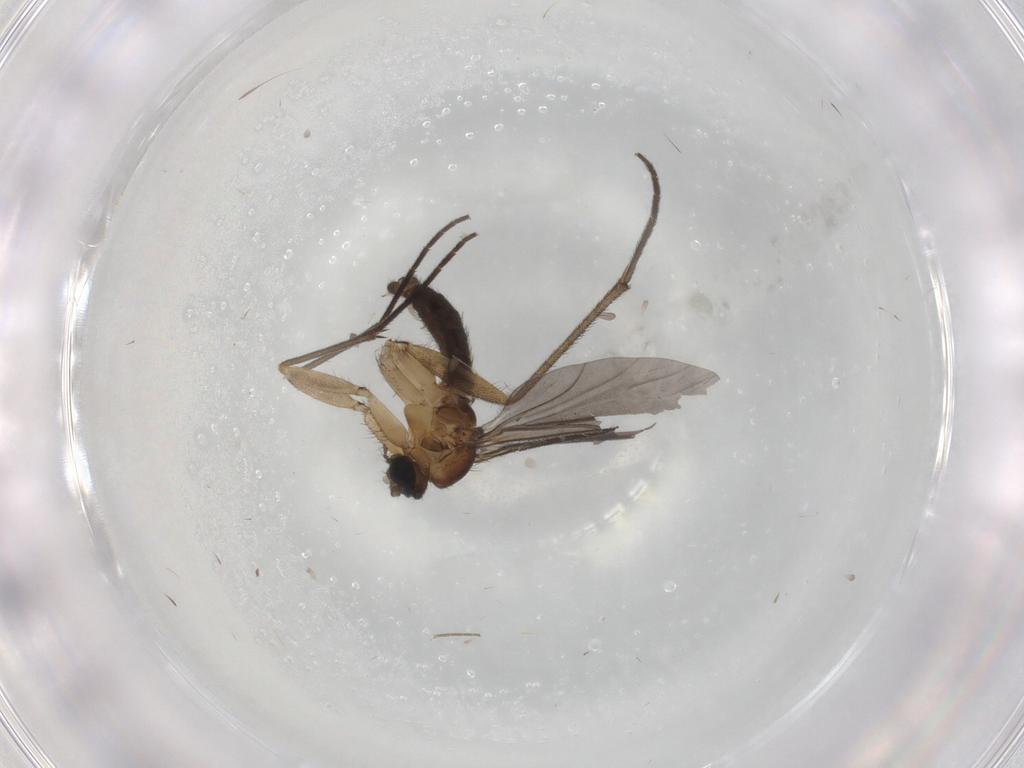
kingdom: Animalia
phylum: Arthropoda
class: Insecta
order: Diptera
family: Sciaridae
